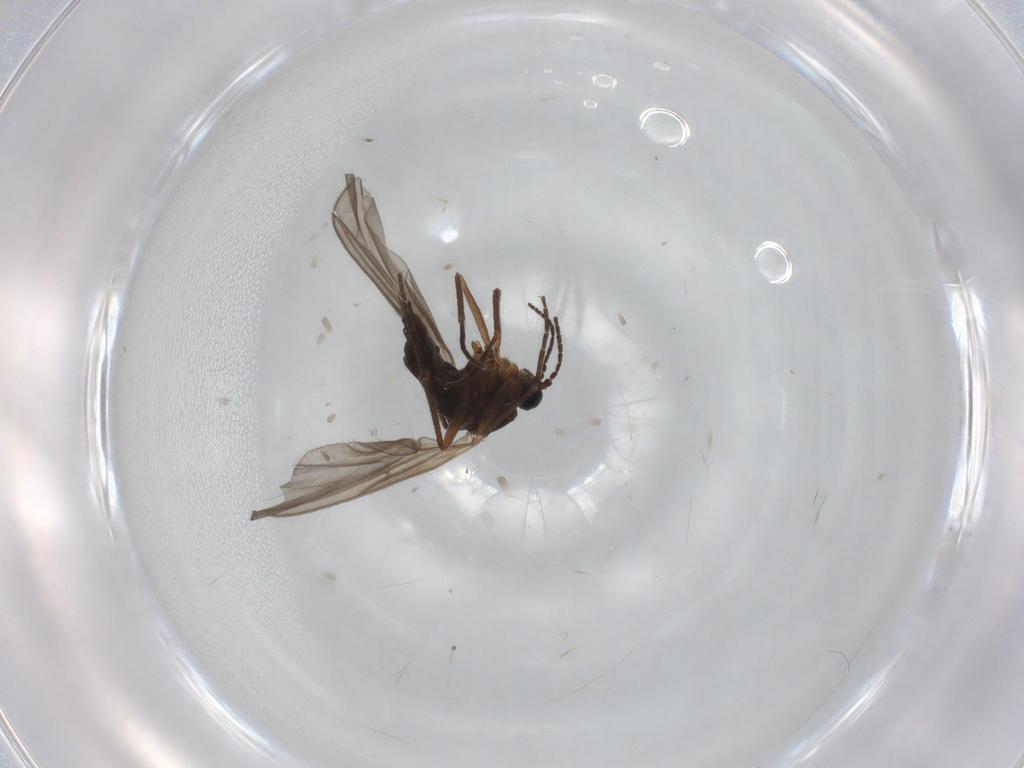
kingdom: Animalia
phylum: Arthropoda
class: Insecta
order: Diptera
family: Sciaridae
